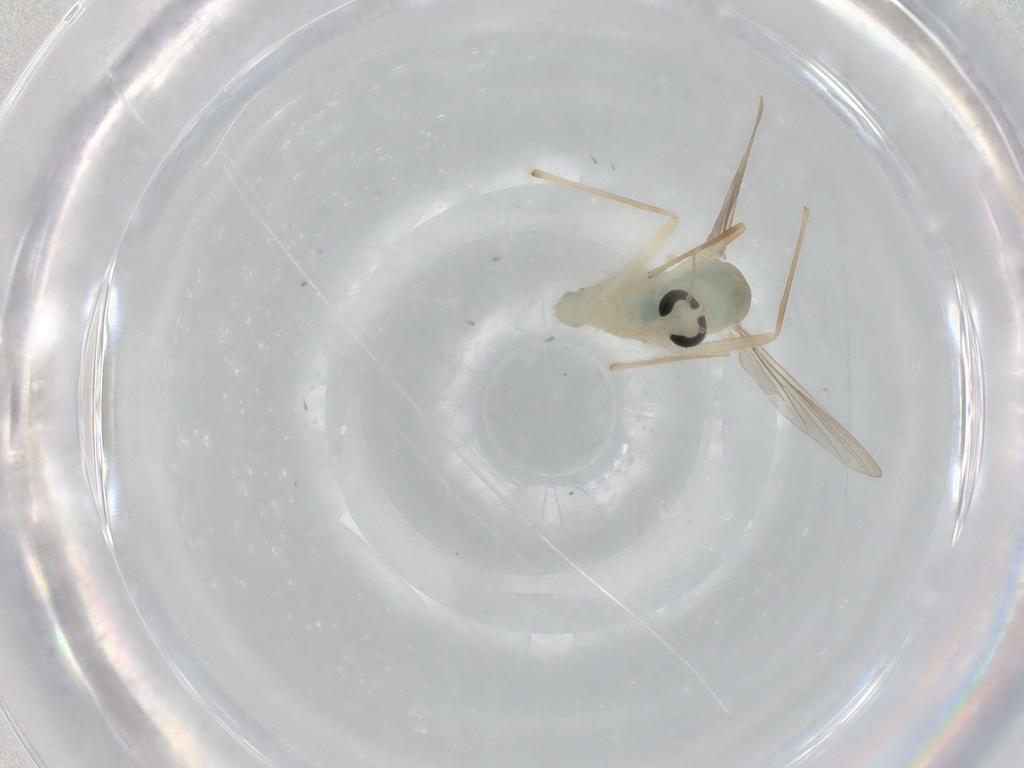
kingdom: Animalia
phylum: Arthropoda
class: Insecta
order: Diptera
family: Chironomidae
